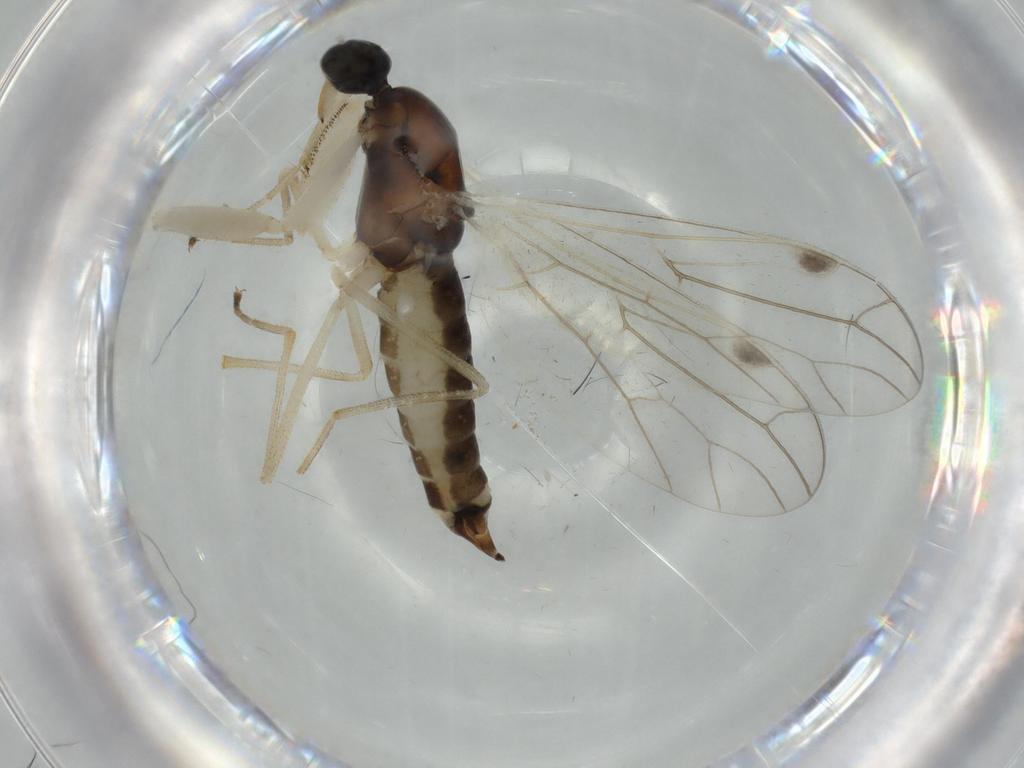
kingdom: Animalia
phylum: Arthropoda
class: Insecta
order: Diptera
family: Empididae
